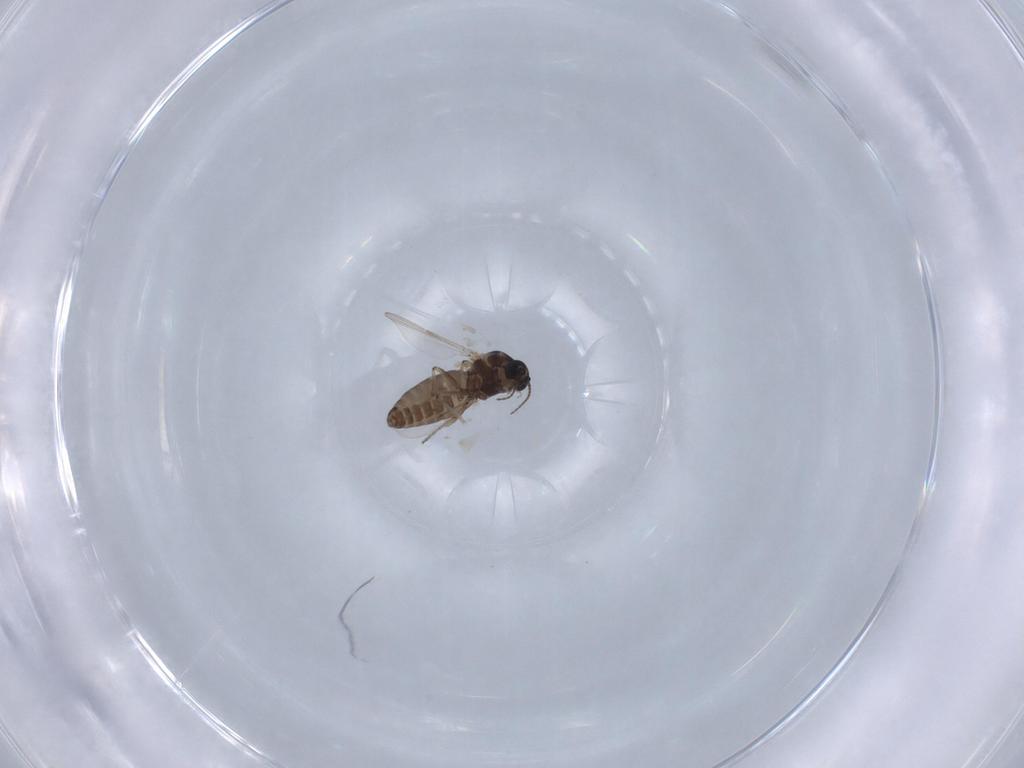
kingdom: Animalia
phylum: Arthropoda
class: Insecta
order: Diptera
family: Ceratopogonidae
